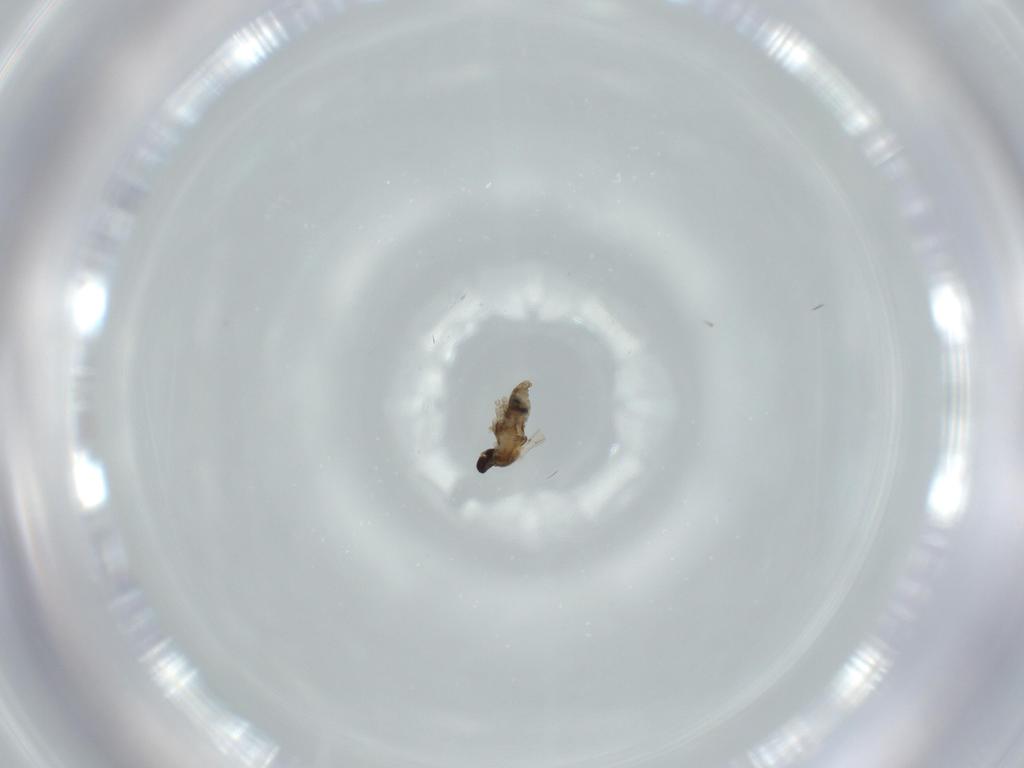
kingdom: Animalia
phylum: Arthropoda
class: Insecta
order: Diptera
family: Cecidomyiidae
